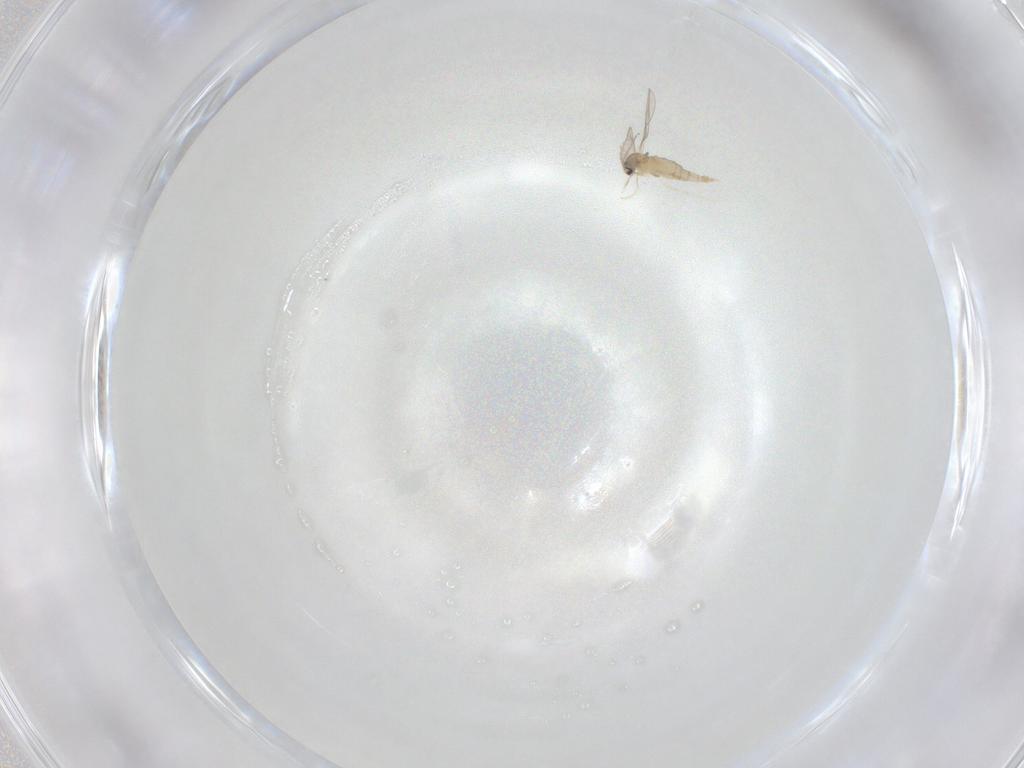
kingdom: Animalia
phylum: Arthropoda
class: Insecta
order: Diptera
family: Cecidomyiidae
